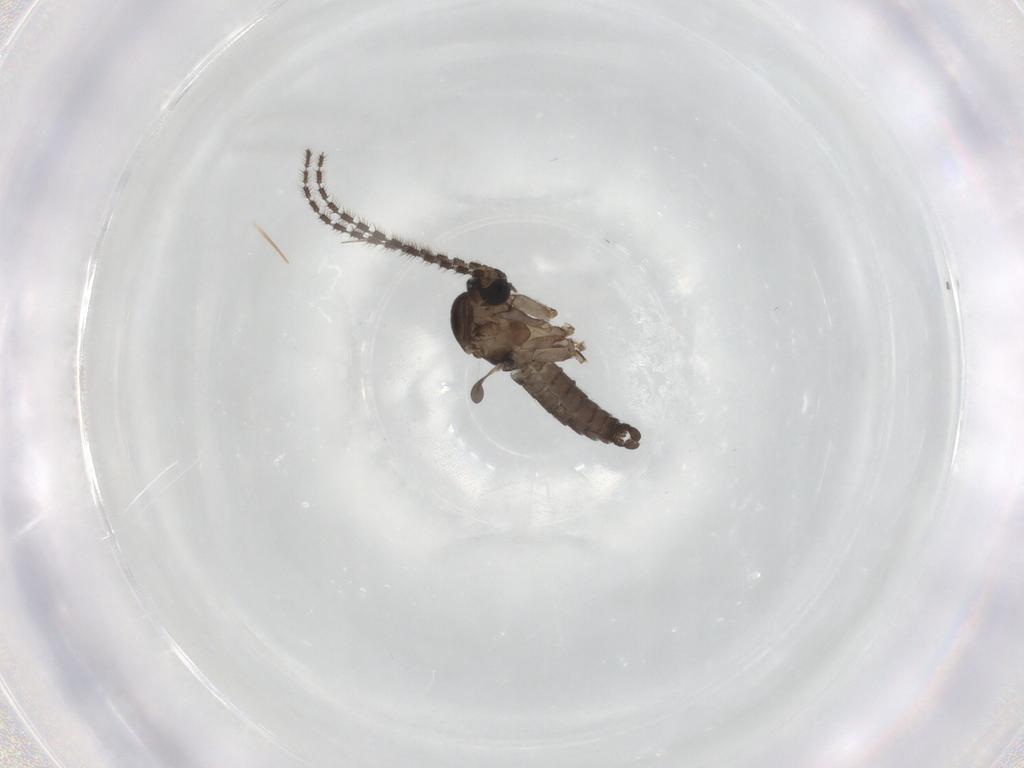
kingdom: Animalia
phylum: Arthropoda
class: Insecta
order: Diptera
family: Sciaridae
